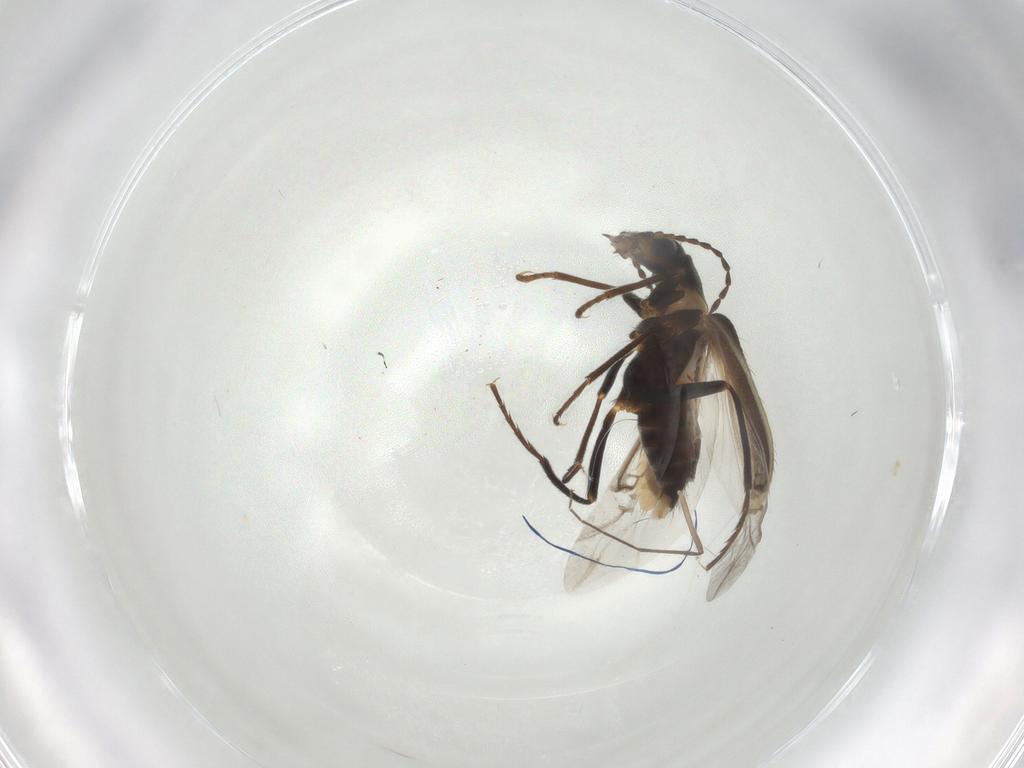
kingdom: Animalia
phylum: Arthropoda
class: Insecta
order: Coleoptera
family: Melyridae
